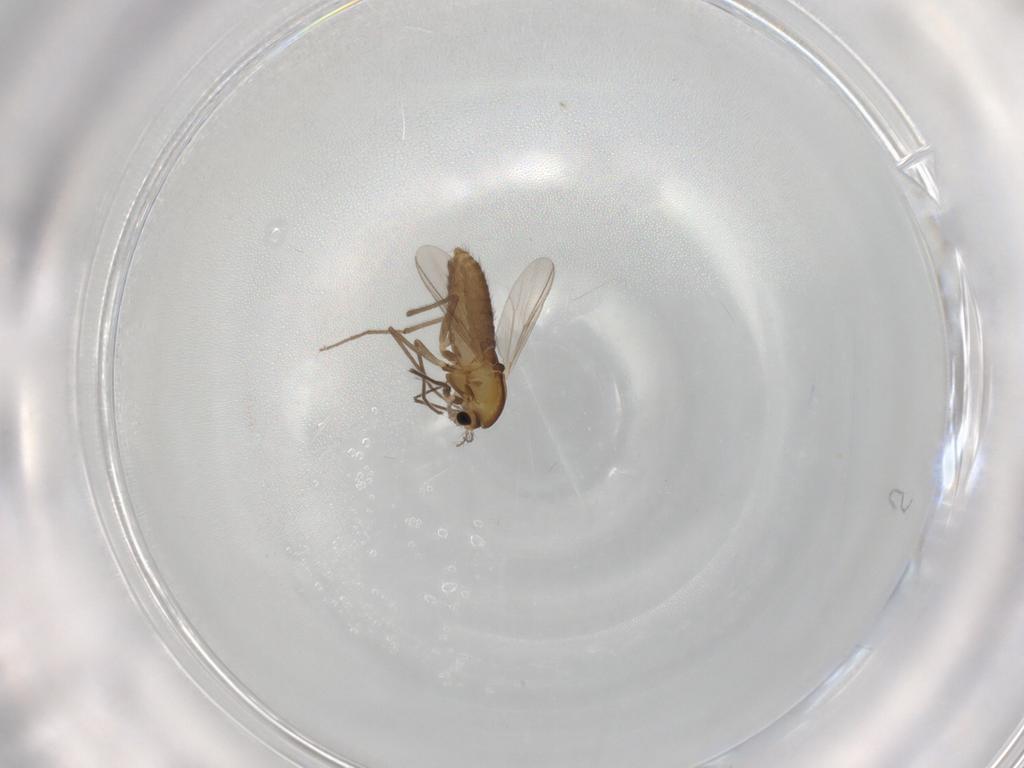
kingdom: Animalia
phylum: Arthropoda
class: Insecta
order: Diptera
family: Chironomidae
